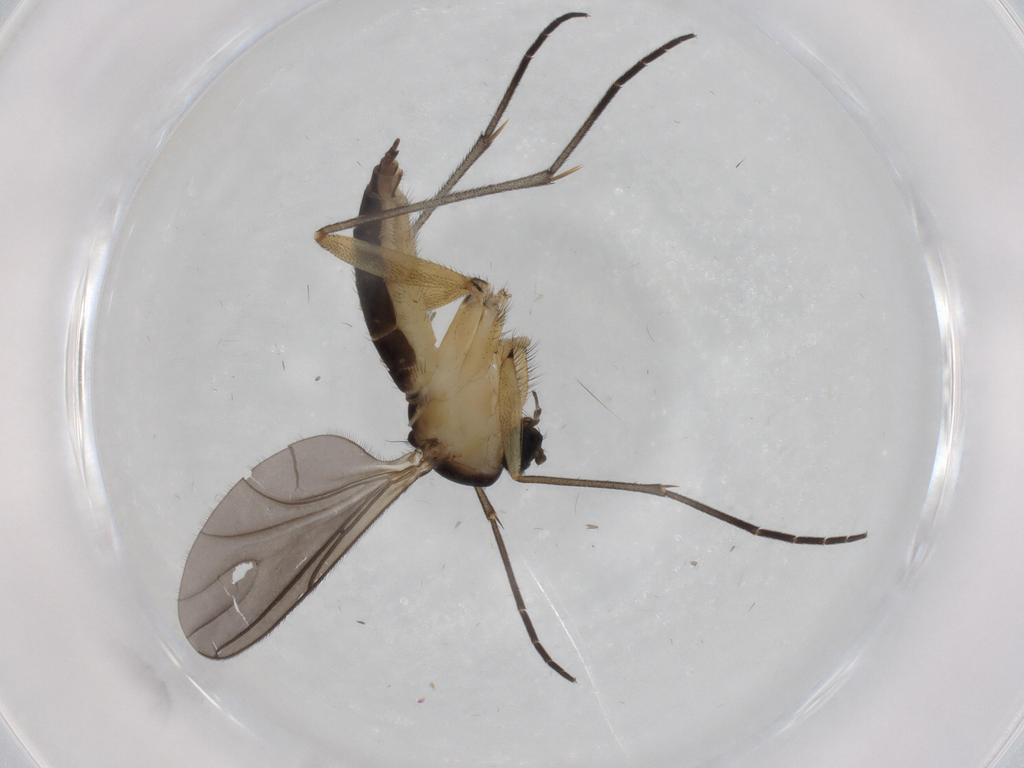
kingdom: Animalia
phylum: Arthropoda
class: Insecta
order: Diptera
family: Sciaridae
